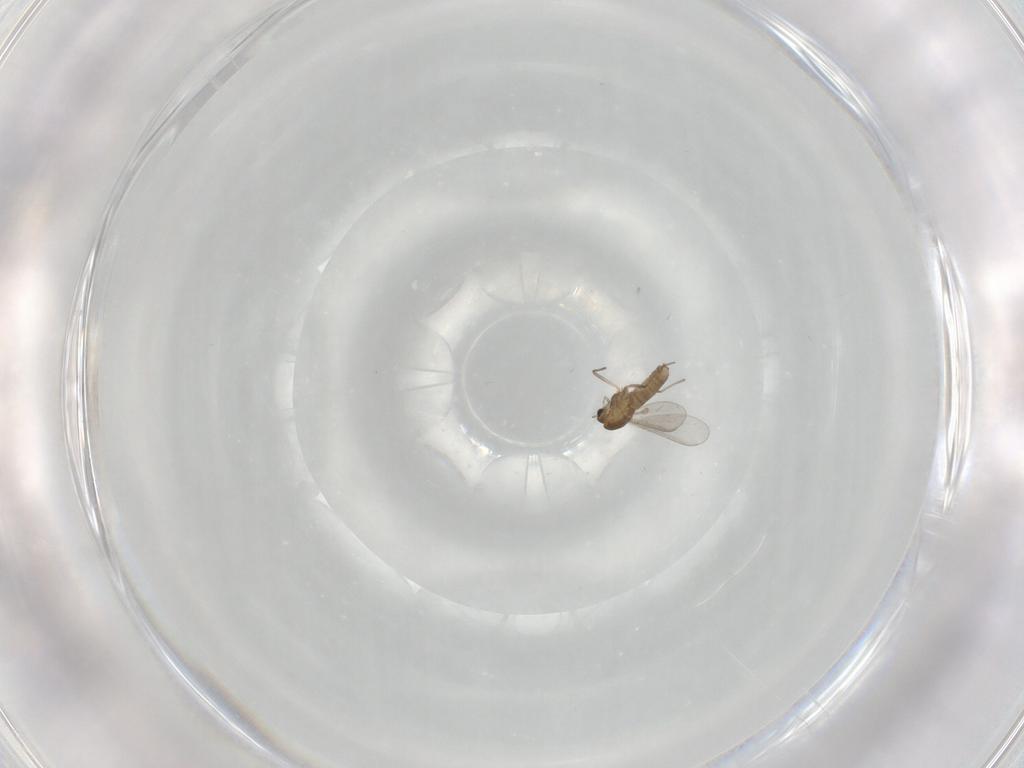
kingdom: Animalia
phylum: Arthropoda
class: Insecta
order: Diptera
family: Chironomidae
